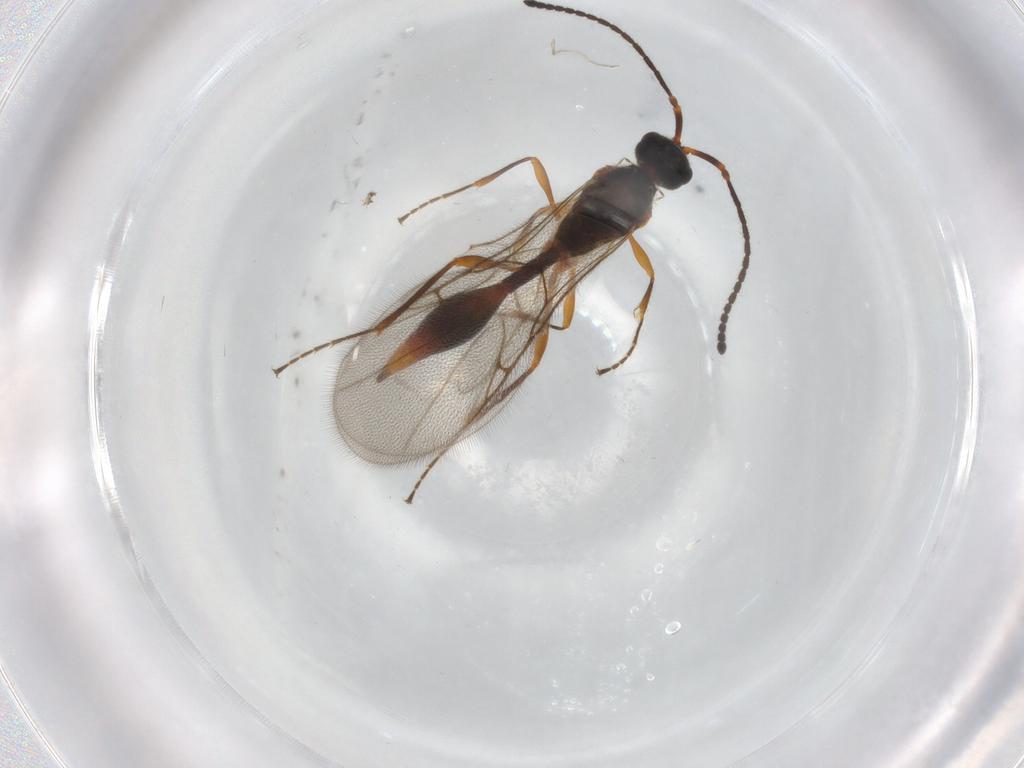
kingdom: Animalia
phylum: Arthropoda
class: Insecta
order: Hymenoptera
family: Diapriidae
